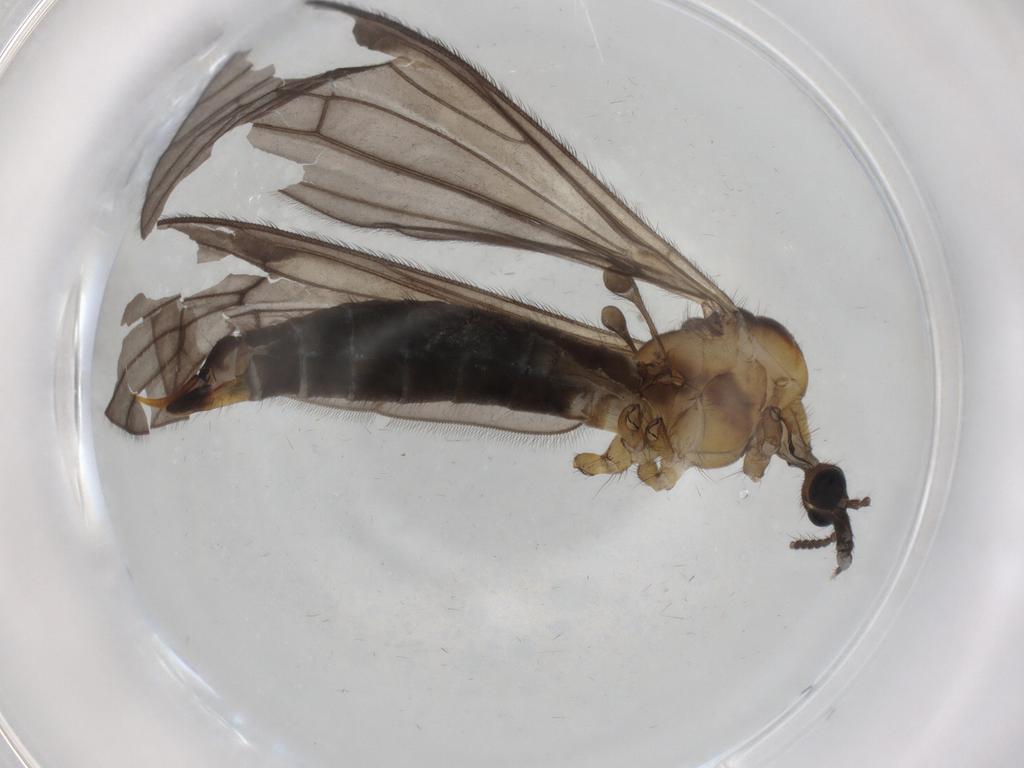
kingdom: Animalia
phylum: Arthropoda
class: Insecta
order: Diptera
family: Limoniidae
